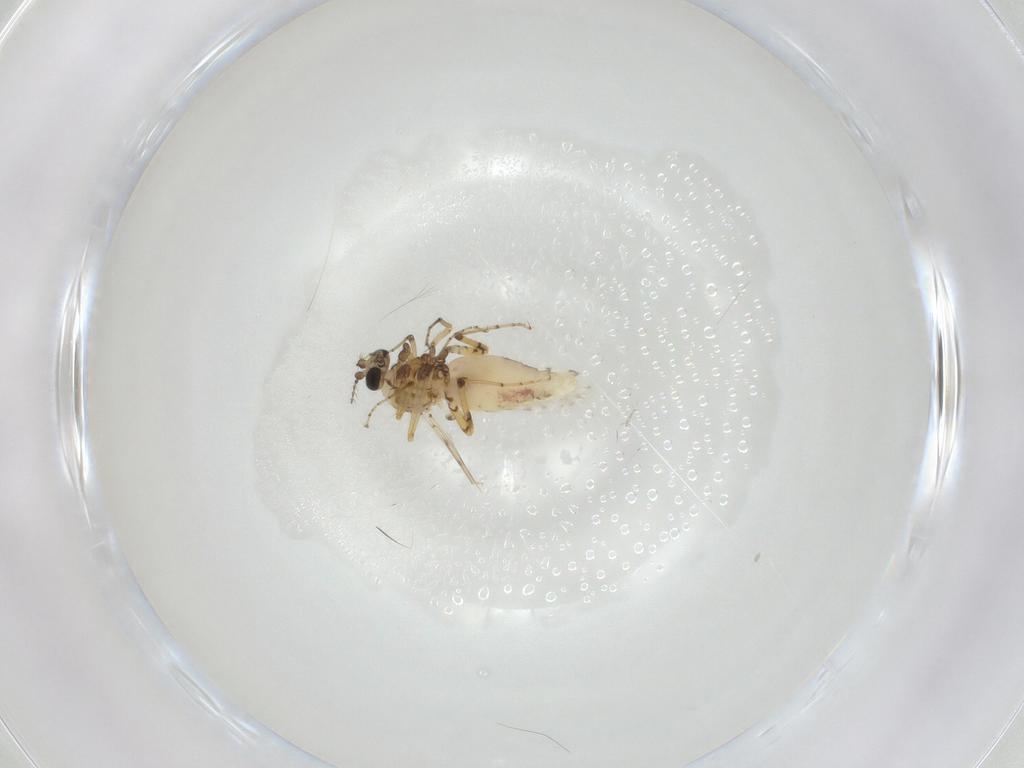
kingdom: Animalia
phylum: Arthropoda
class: Insecta
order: Diptera
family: Ceratopogonidae
